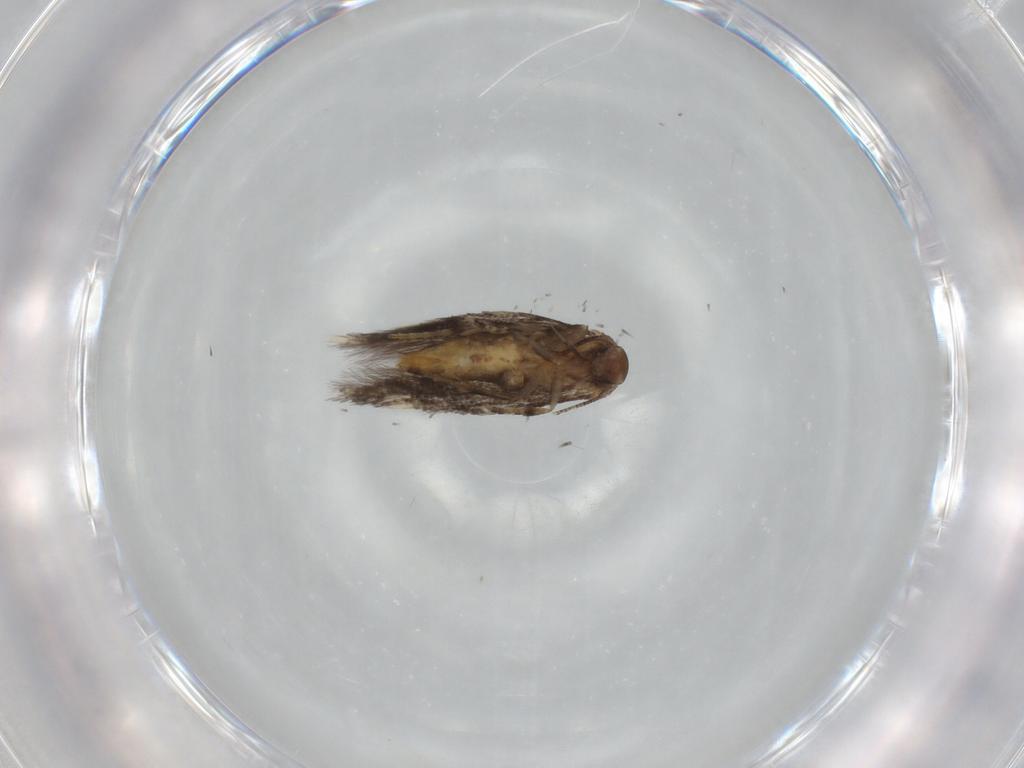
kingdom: Animalia
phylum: Arthropoda
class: Insecta
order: Lepidoptera
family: Elachistidae
